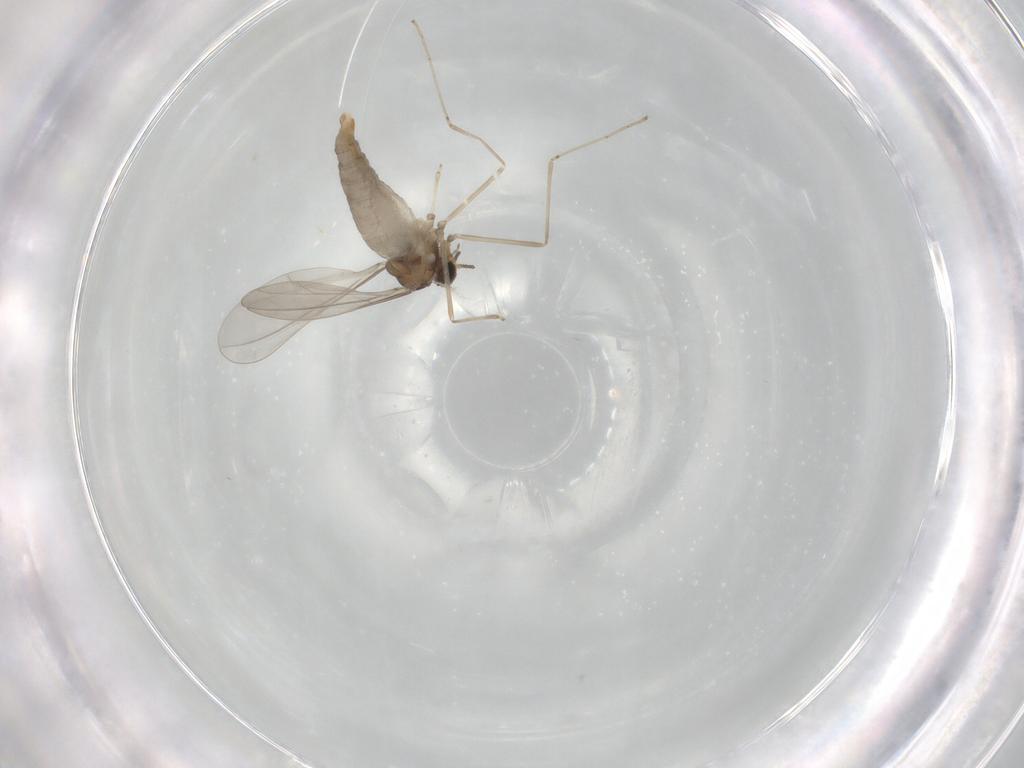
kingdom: Animalia
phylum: Arthropoda
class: Insecta
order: Diptera
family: Cecidomyiidae
